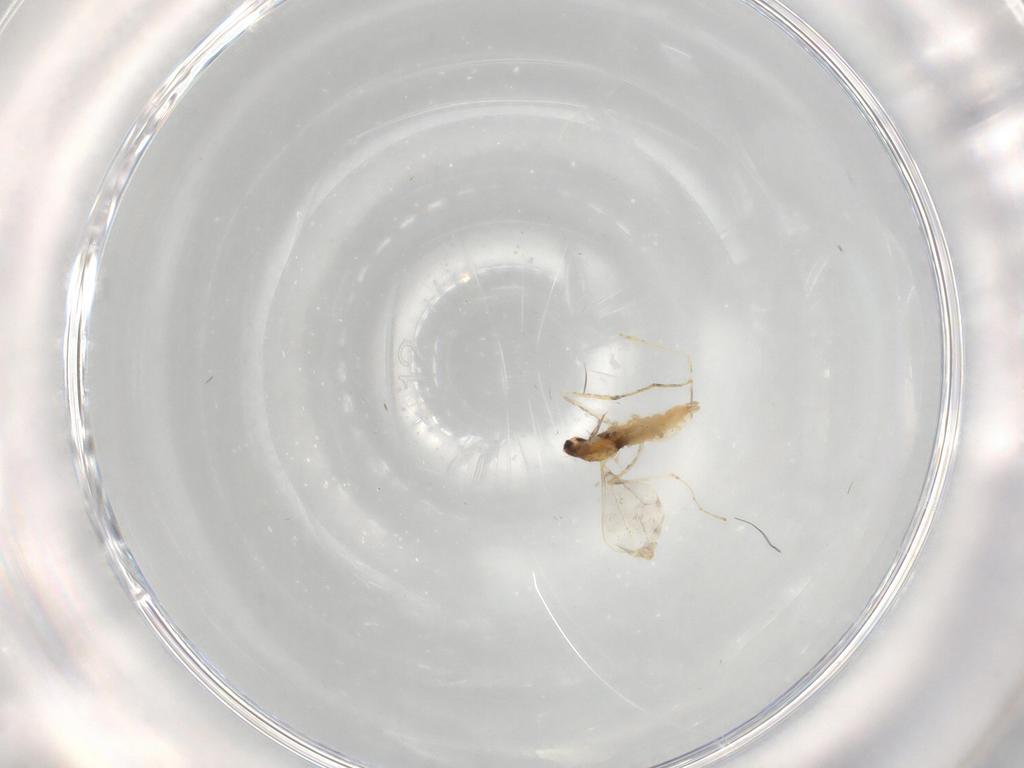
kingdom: Animalia
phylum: Arthropoda
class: Insecta
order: Diptera
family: Cecidomyiidae
